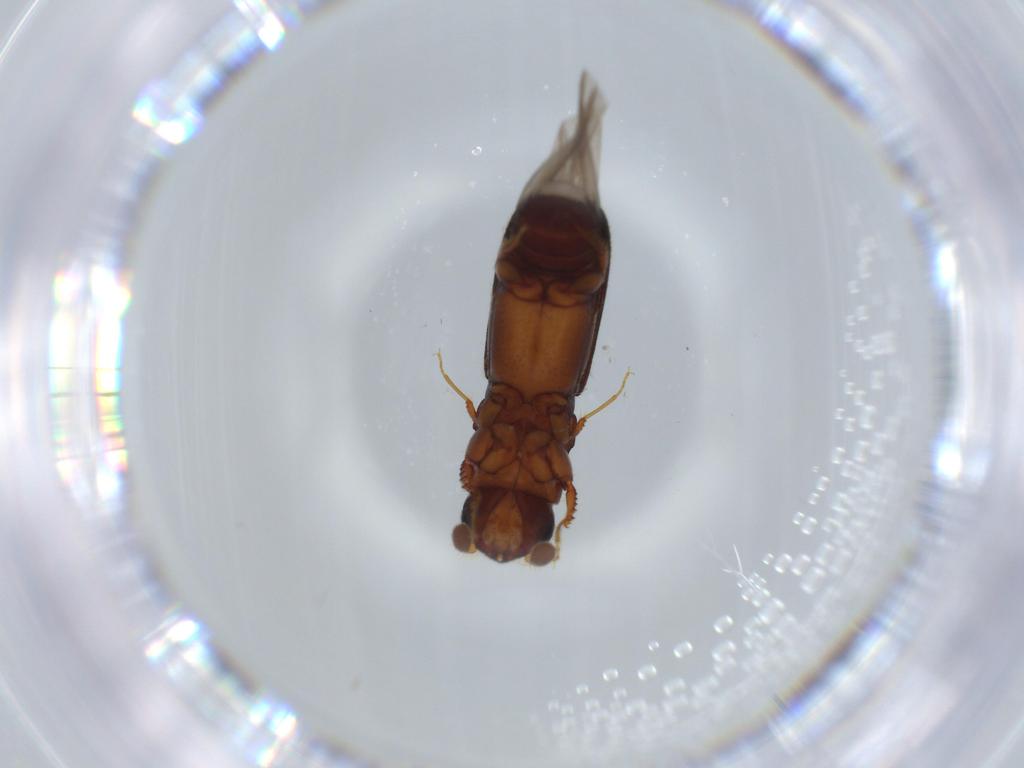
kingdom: Animalia
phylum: Arthropoda
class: Insecta
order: Coleoptera
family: Curculionidae
